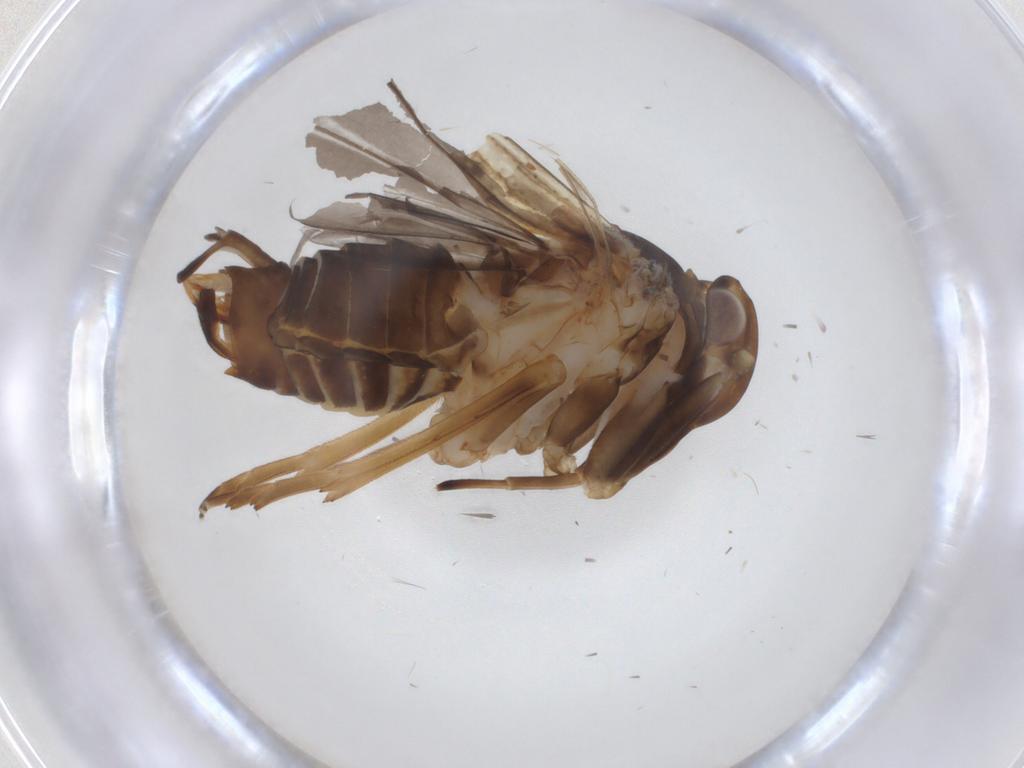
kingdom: Animalia
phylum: Arthropoda
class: Insecta
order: Hemiptera
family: Cixiidae
